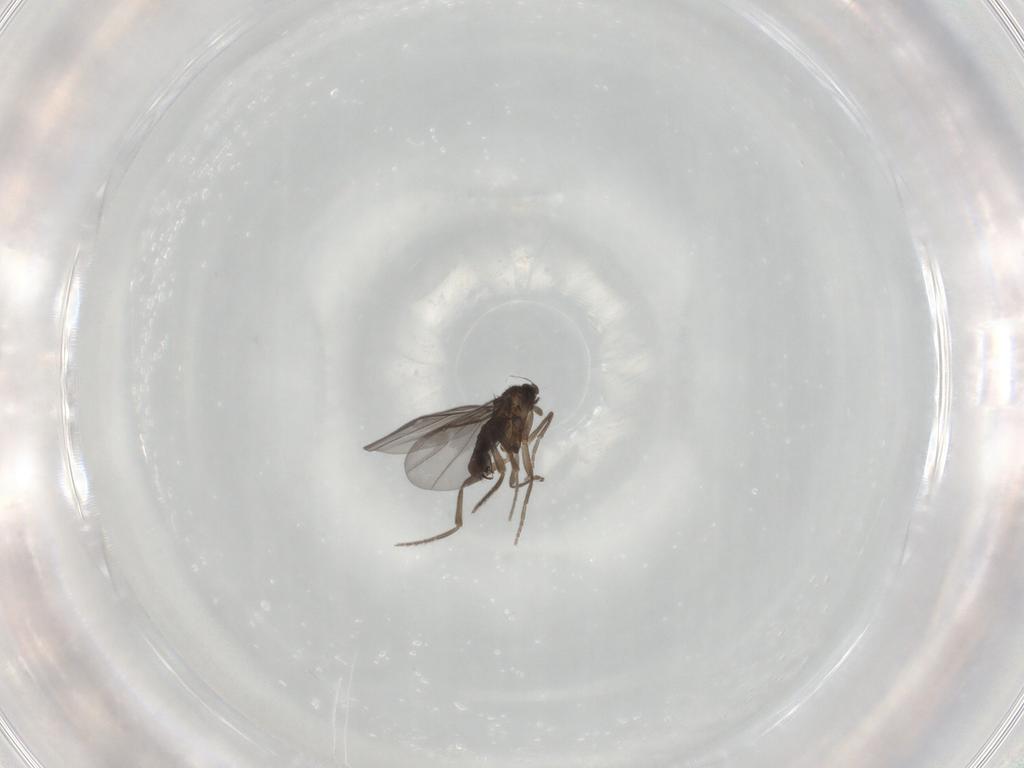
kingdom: Animalia
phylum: Arthropoda
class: Insecta
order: Diptera
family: Phoridae
